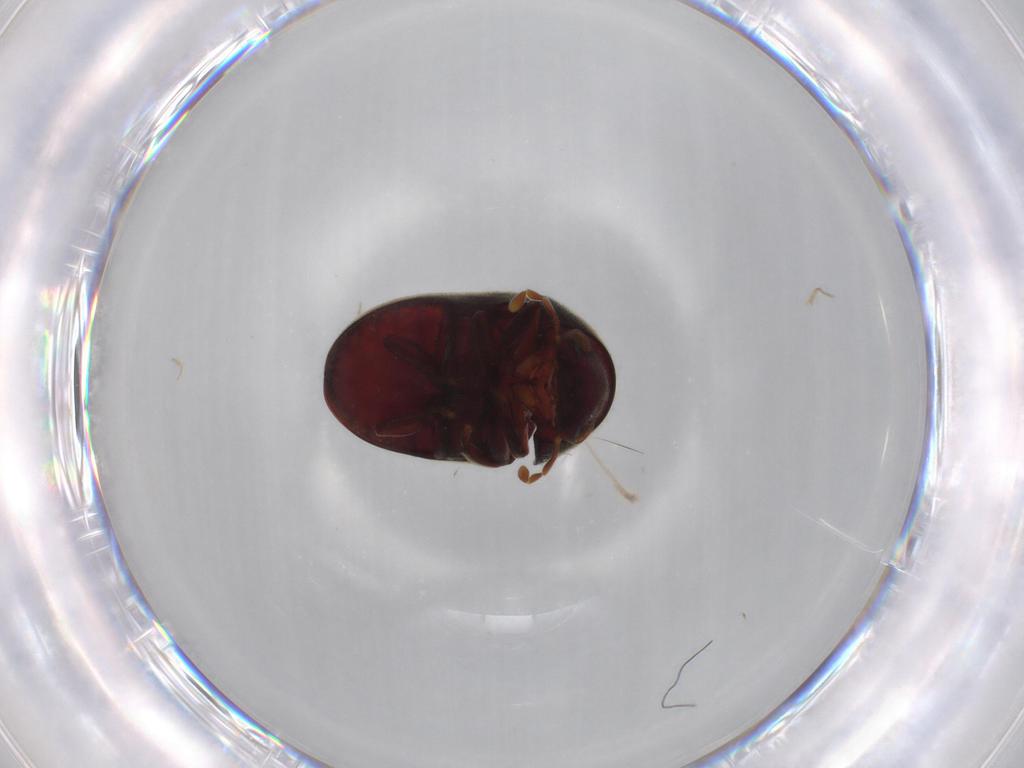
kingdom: Animalia
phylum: Arthropoda
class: Insecta
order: Coleoptera
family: Ptinidae
